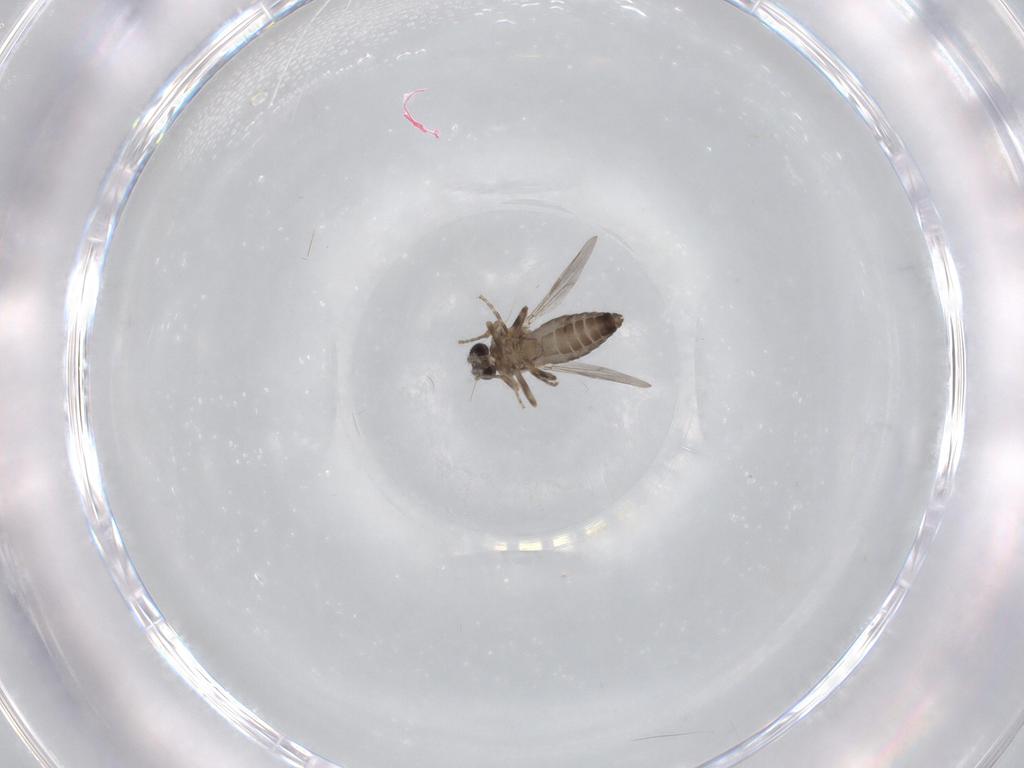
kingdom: Animalia
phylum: Arthropoda
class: Insecta
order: Diptera
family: Ceratopogonidae
